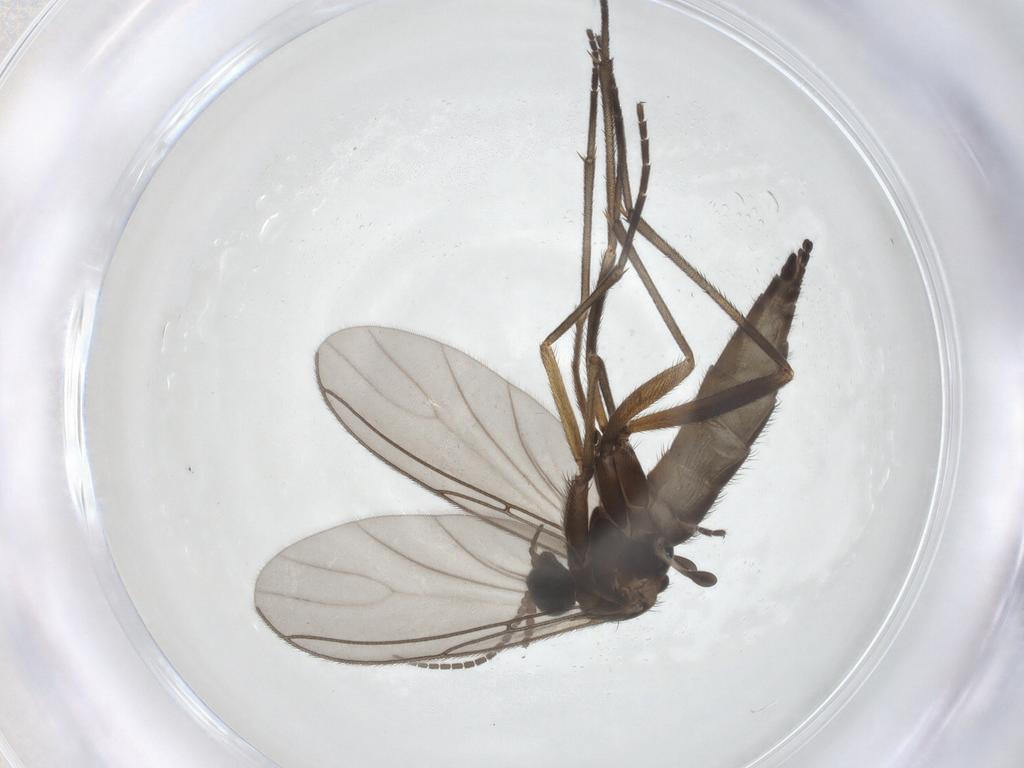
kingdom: Animalia
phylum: Arthropoda
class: Insecta
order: Diptera
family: Sciaridae
